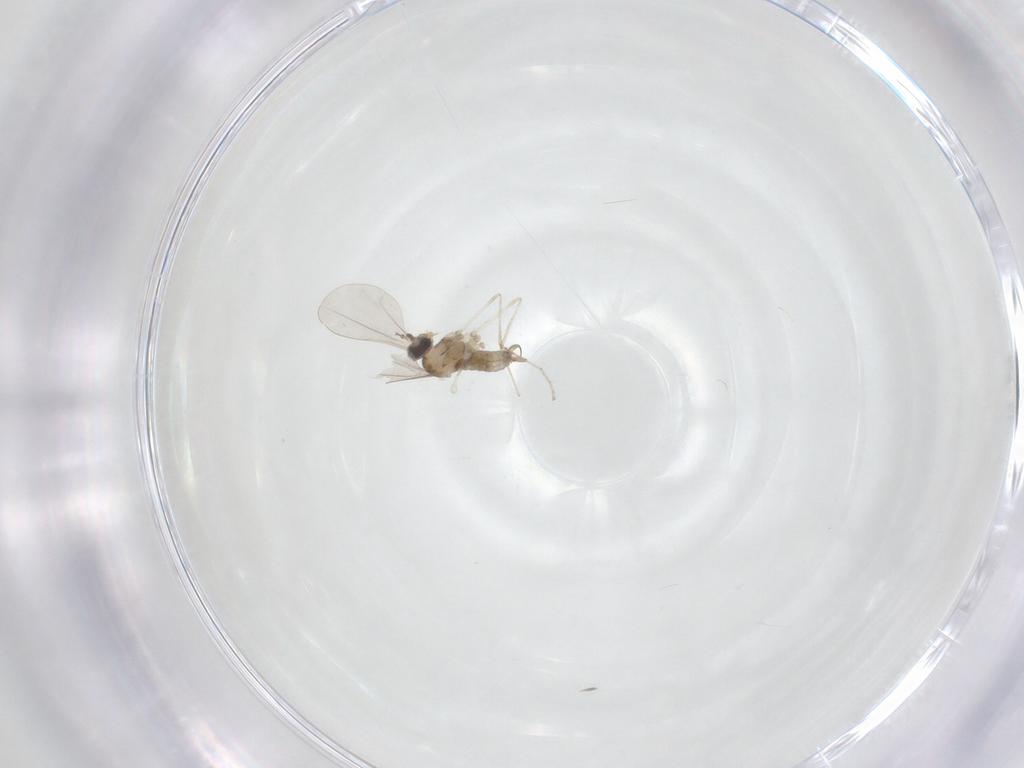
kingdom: Animalia
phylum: Arthropoda
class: Insecta
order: Diptera
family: Cecidomyiidae
